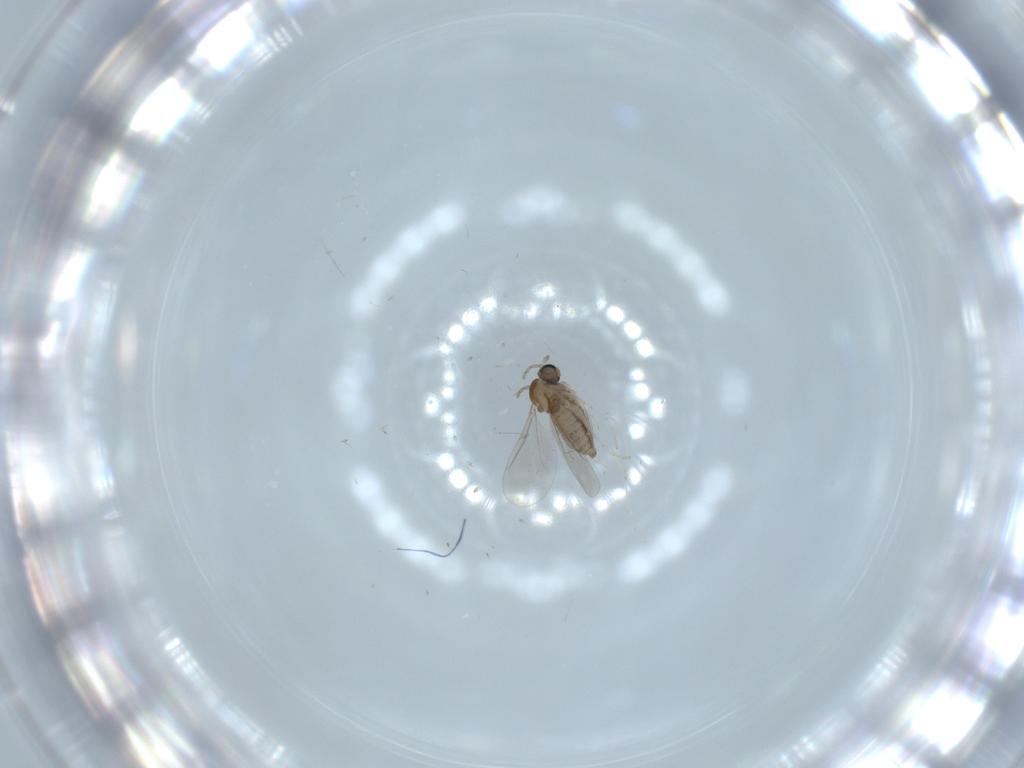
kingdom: Animalia
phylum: Arthropoda
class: Insecta
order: Diptera
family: Cecidomyiidae
